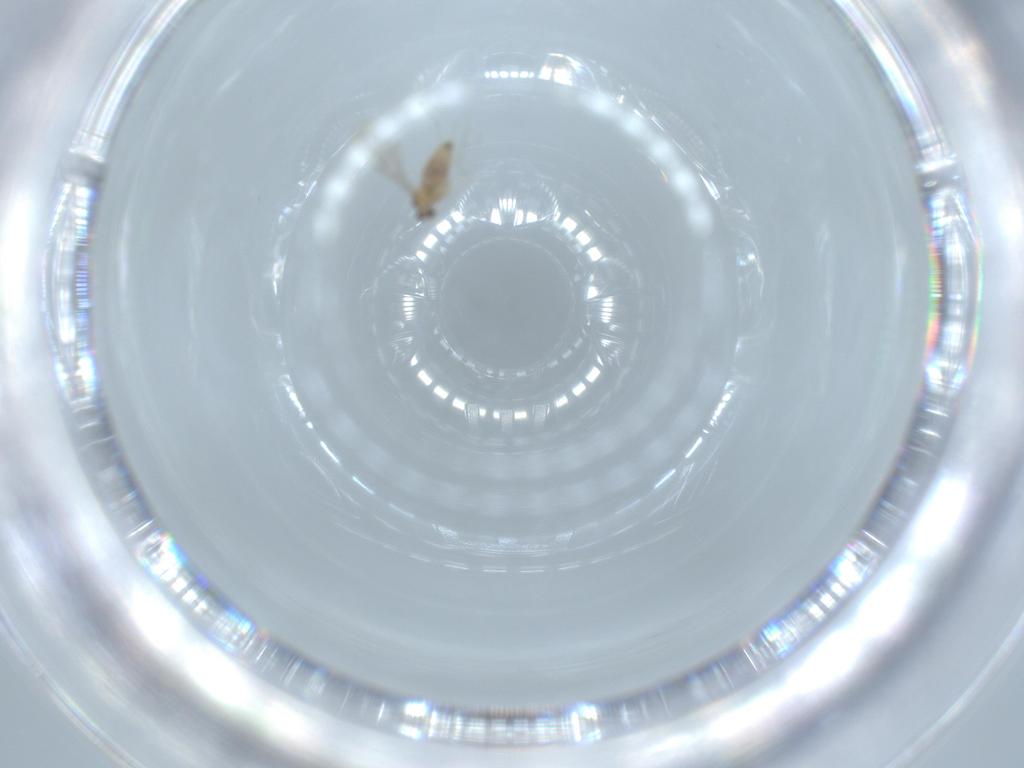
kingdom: Animalia
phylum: Arthropoda
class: Insecta
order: Diptera
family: Cecidomyiidae
